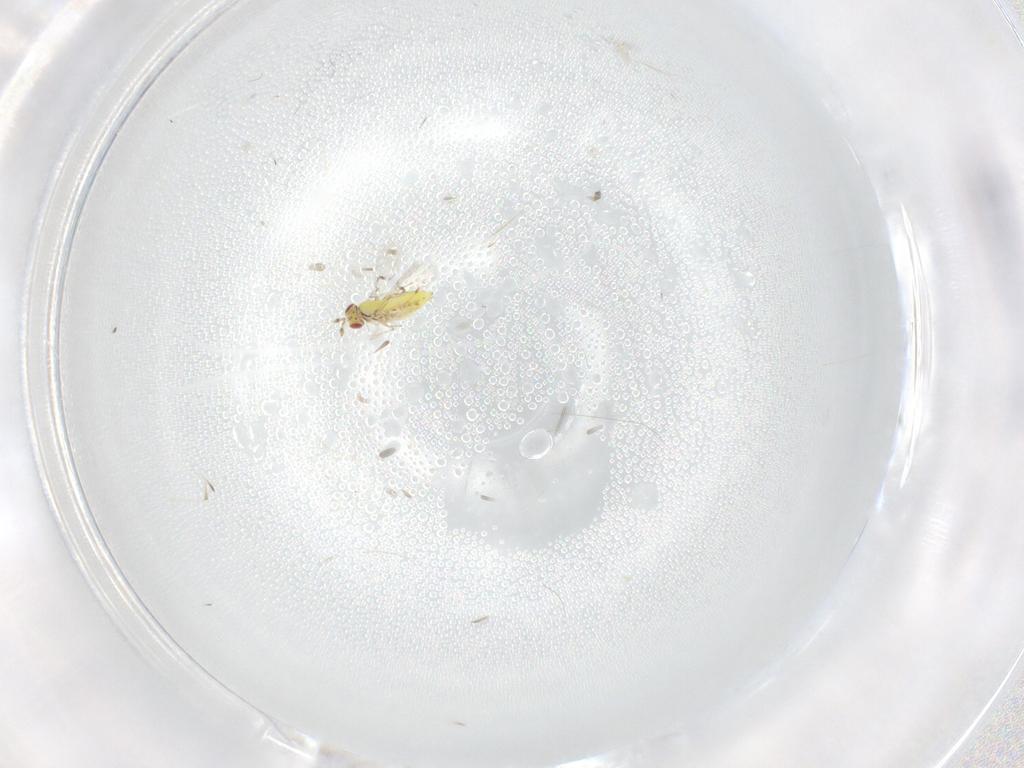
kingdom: Animalia
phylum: Arthropoda
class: Insecta
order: Hymenoptera
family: Trichogrammatidae
